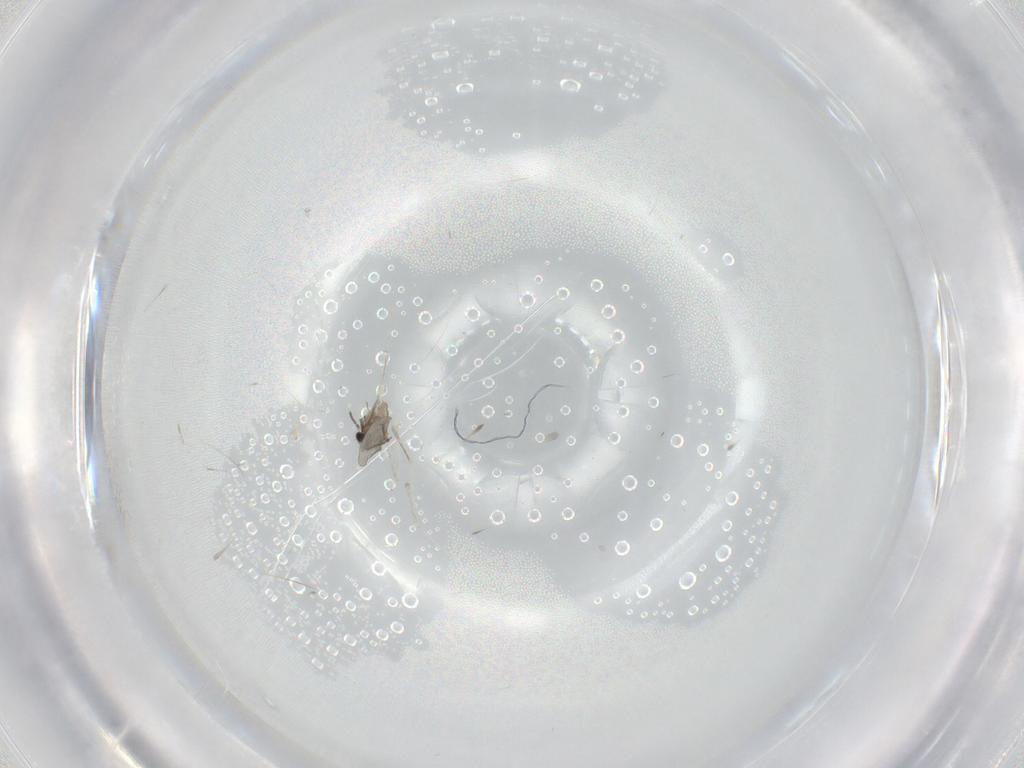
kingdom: Animalia
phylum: Arthropoda
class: Insecta
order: Diptera
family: Cecidomyiidae
